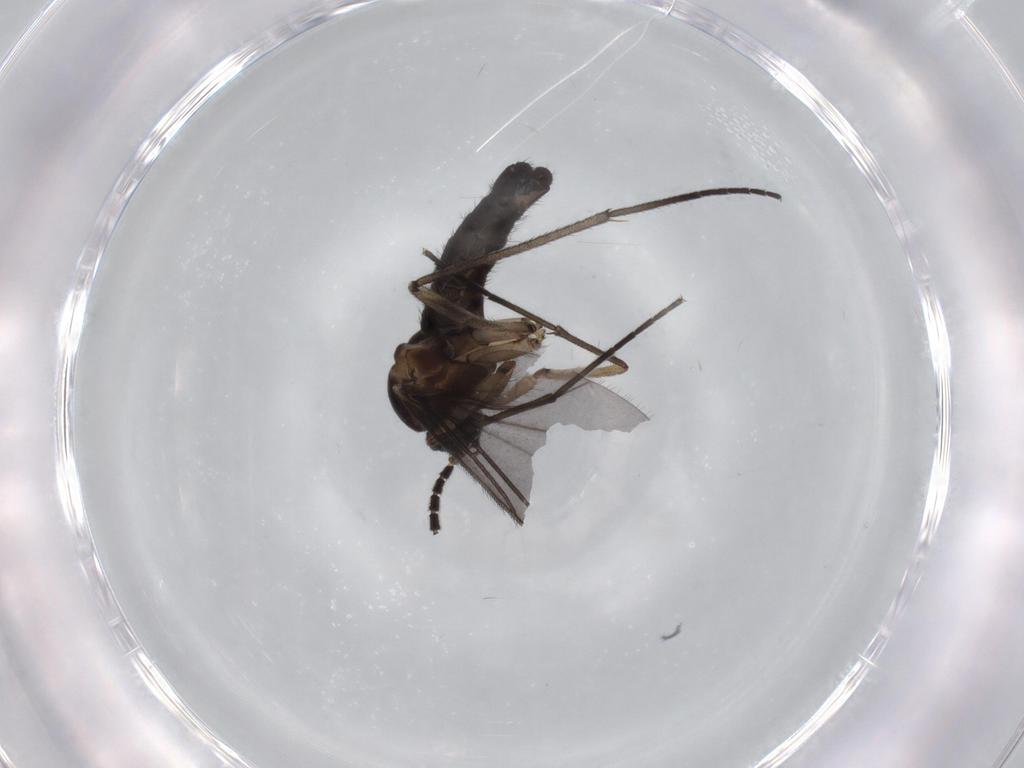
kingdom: Animalia
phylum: Arthropoda
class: Insecta
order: Diptera
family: Sciaridae
